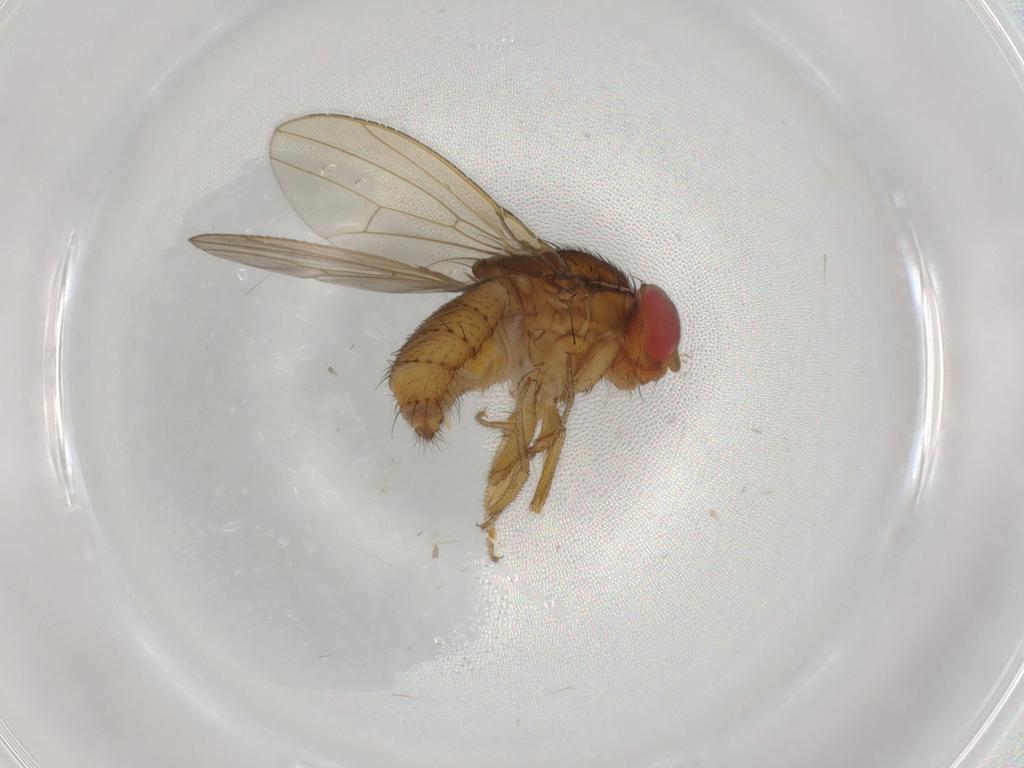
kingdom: Animalia
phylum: Arthropoda
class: Insecta
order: Diptera
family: Drosophilidae
